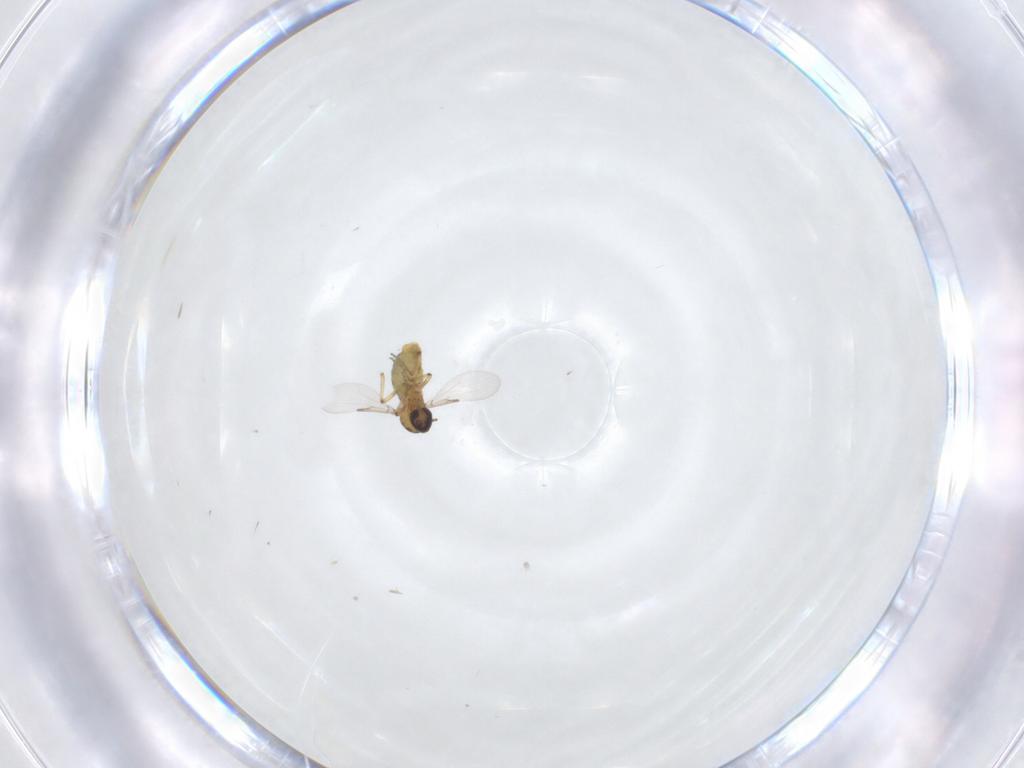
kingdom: Animalia
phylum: Arthropoda
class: Insecta
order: Diptera
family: Ceratopogonidae
